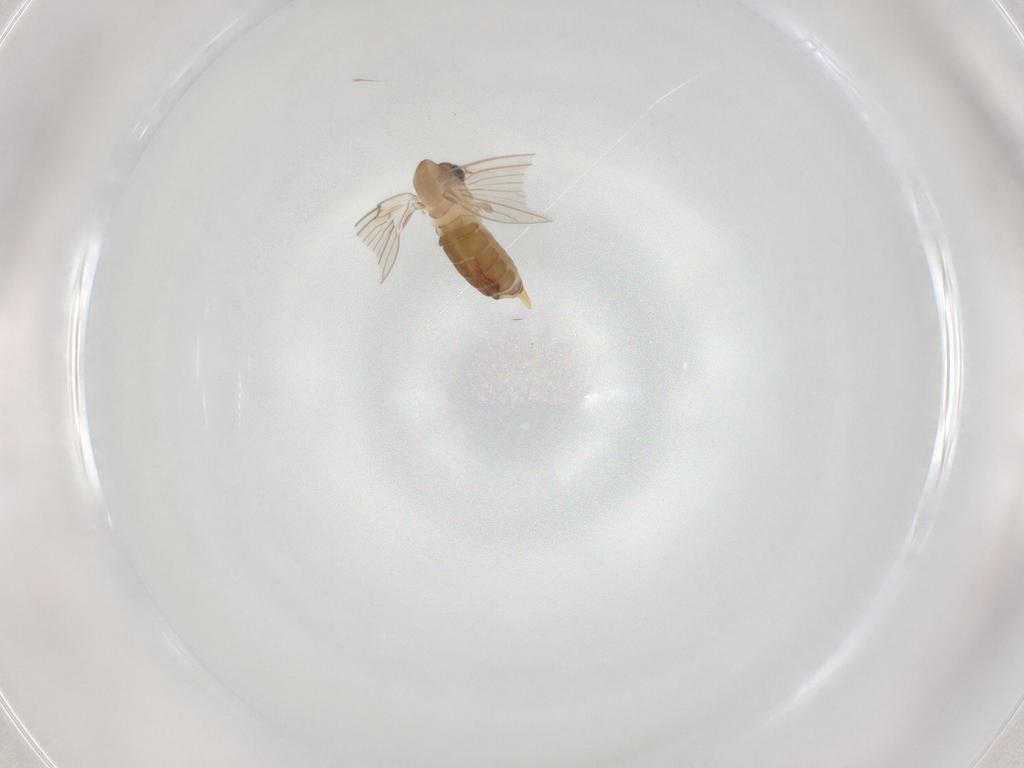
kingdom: Animalia
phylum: Arthropoda
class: Insecta
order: Diptera
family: Psychodidae
